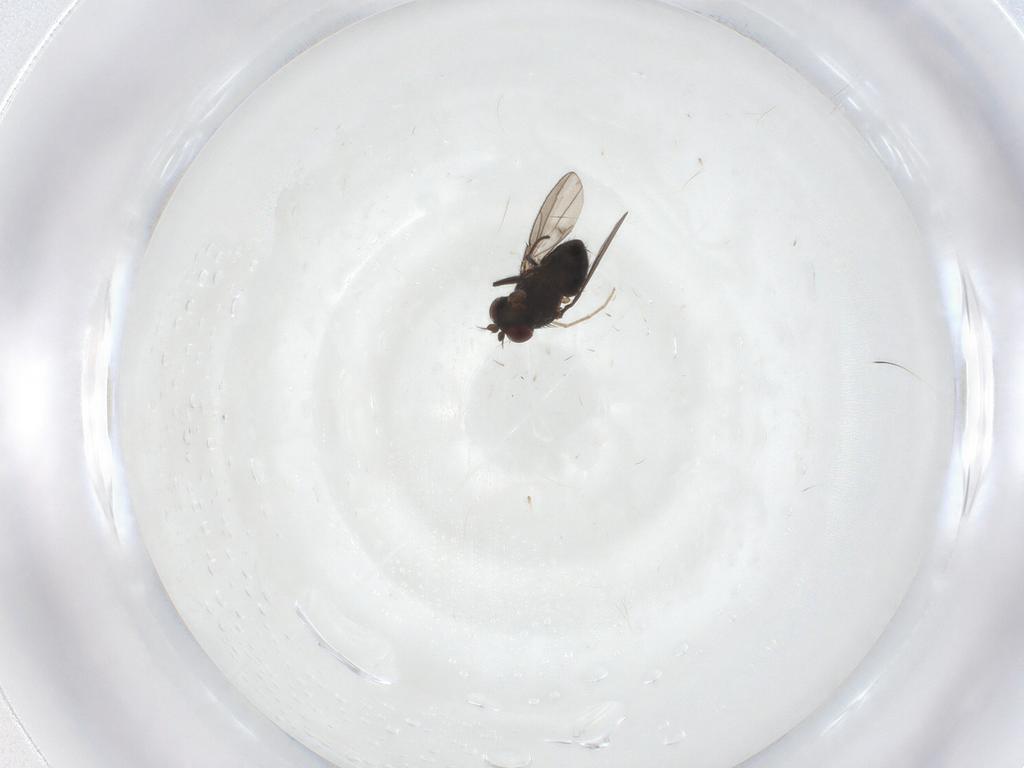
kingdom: Animalia
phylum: Arthropoda
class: Insecta
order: Diptera
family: Ephydridae
